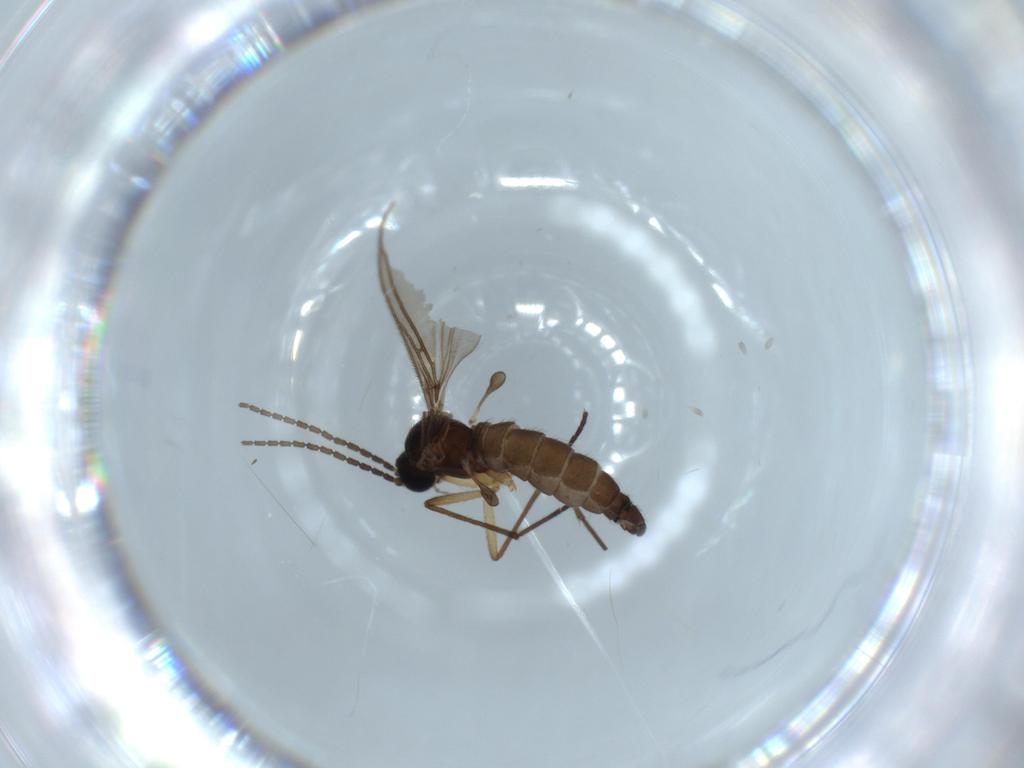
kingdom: Animalia
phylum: Arthropoda
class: Insecta
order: Diptera
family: Sciaridae
